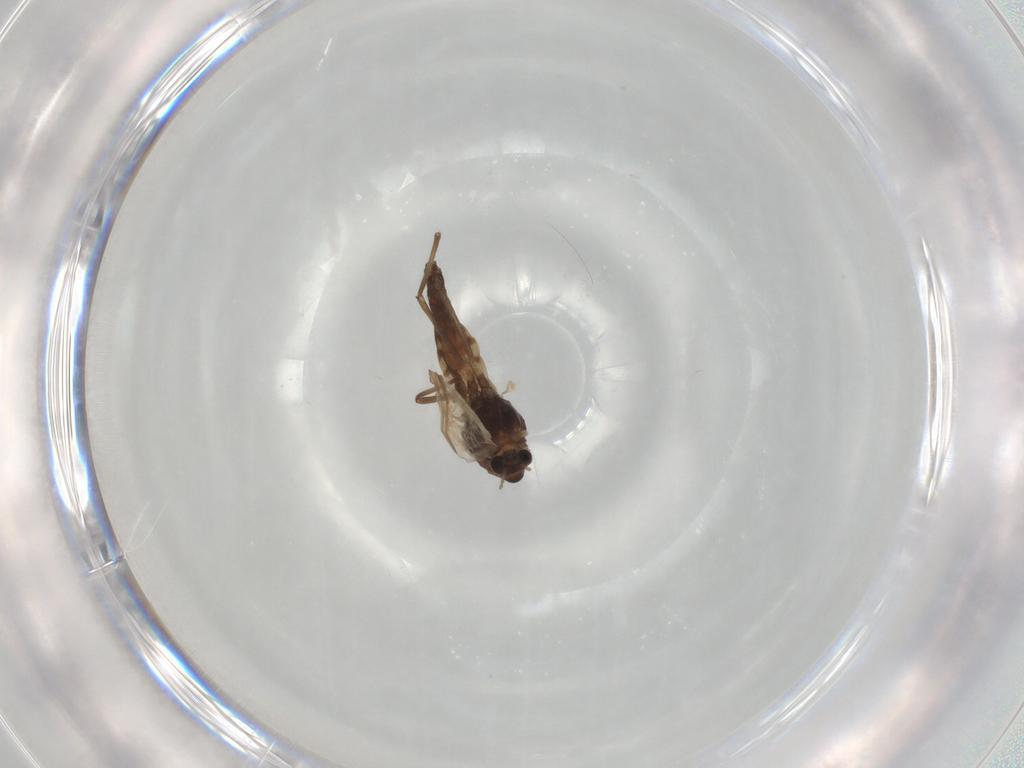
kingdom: Animalia
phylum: Arthropoda
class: Insecta
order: Diptera
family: Chironomidae
